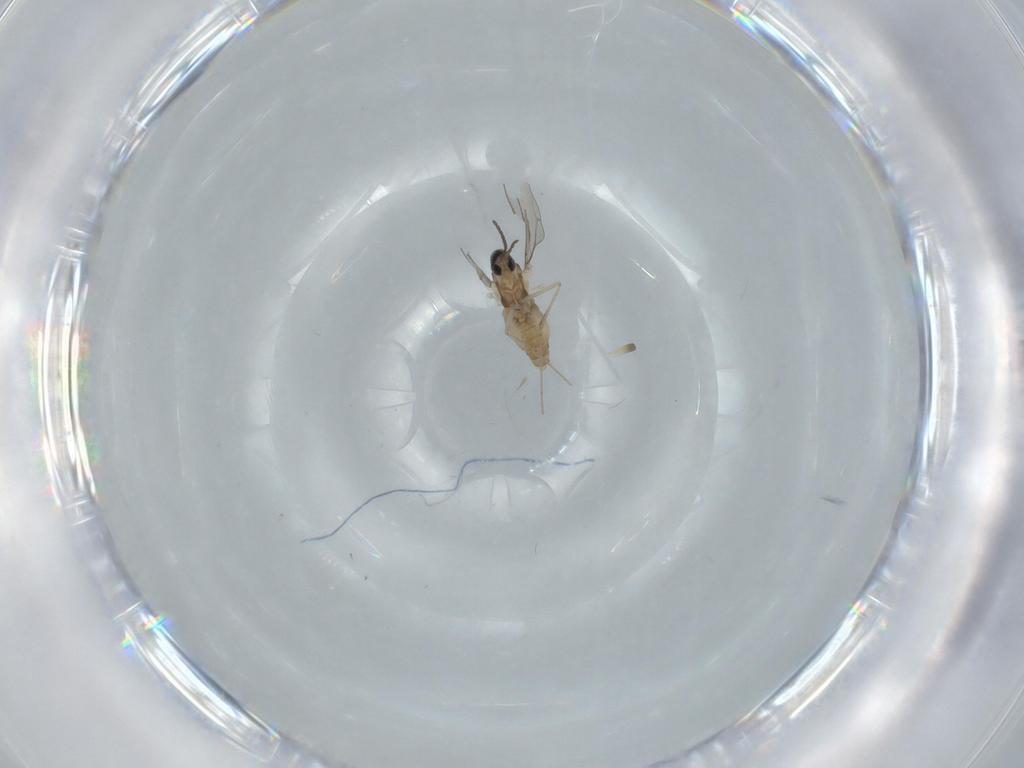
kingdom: Animalia
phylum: Arthropoda
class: Insecta
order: Diptera
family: Cecidomyiidae
